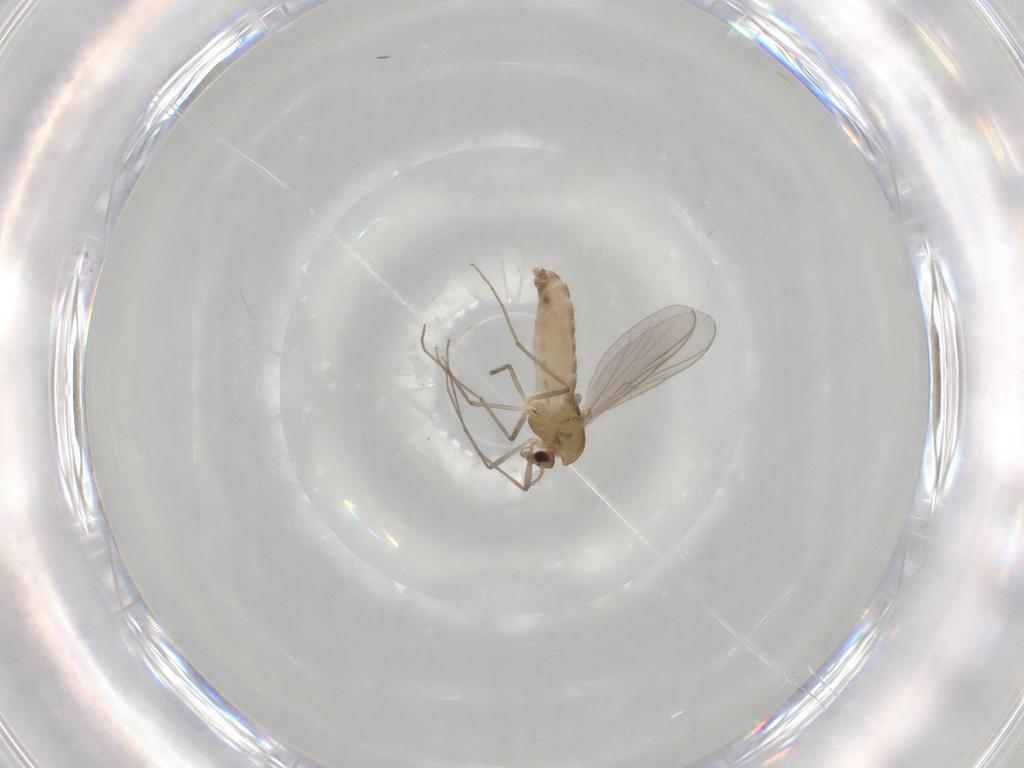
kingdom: Animalia
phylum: Arthropoda
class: Insecta
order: Diptera
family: Chironomidae
